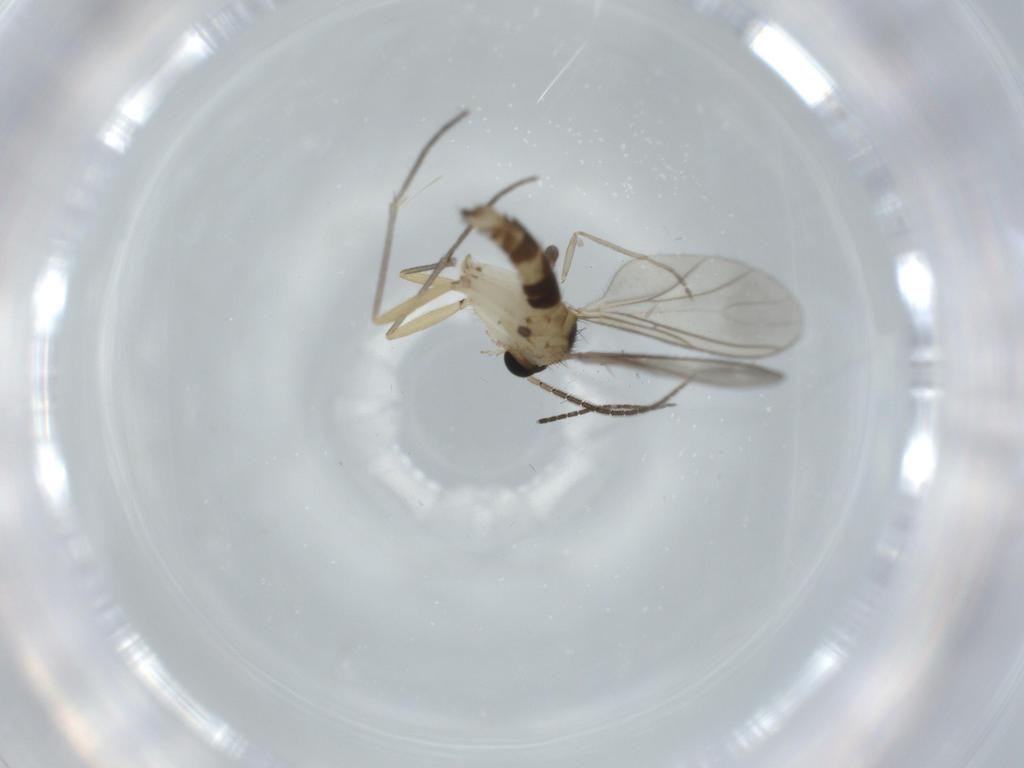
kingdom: Animalia
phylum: Arthropoda
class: Insecta
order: Diptera
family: Sciaridae
